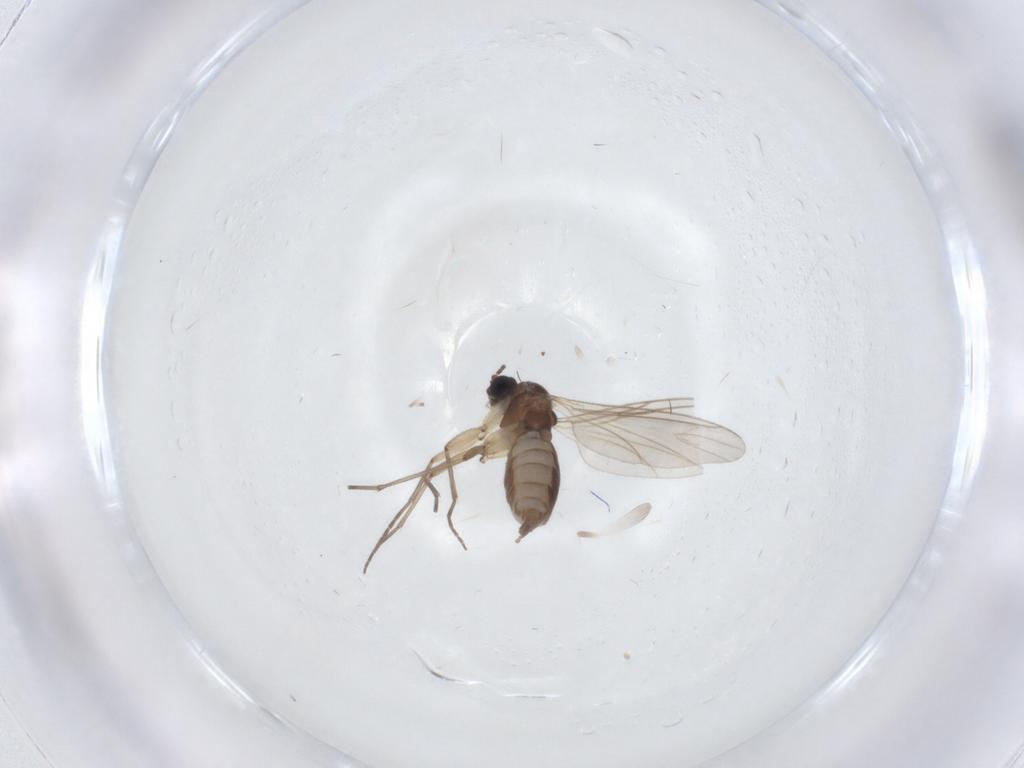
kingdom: Animalia
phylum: Arthropoda
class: Insecta
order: Diptera
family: Sciaridae
